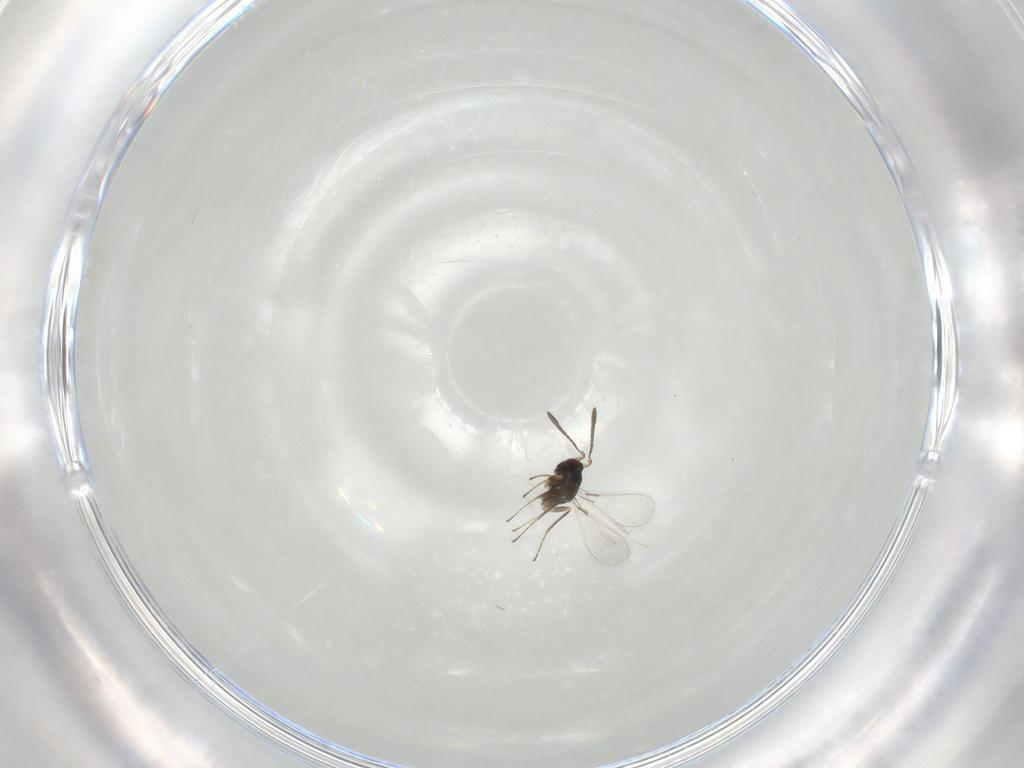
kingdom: Animalia
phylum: Arthropoda
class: Insecta
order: Hymenoptera
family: Mymaridae
